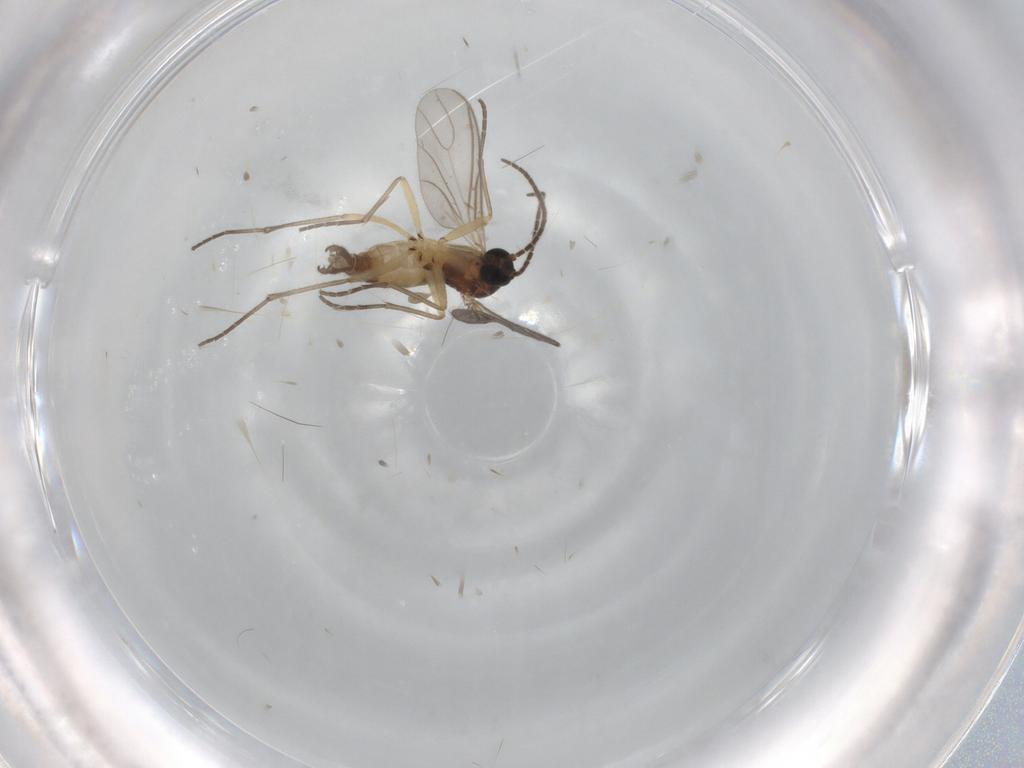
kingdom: Animalia
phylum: Arthropoda
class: Insecta
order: Diptera
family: Sciaridae
